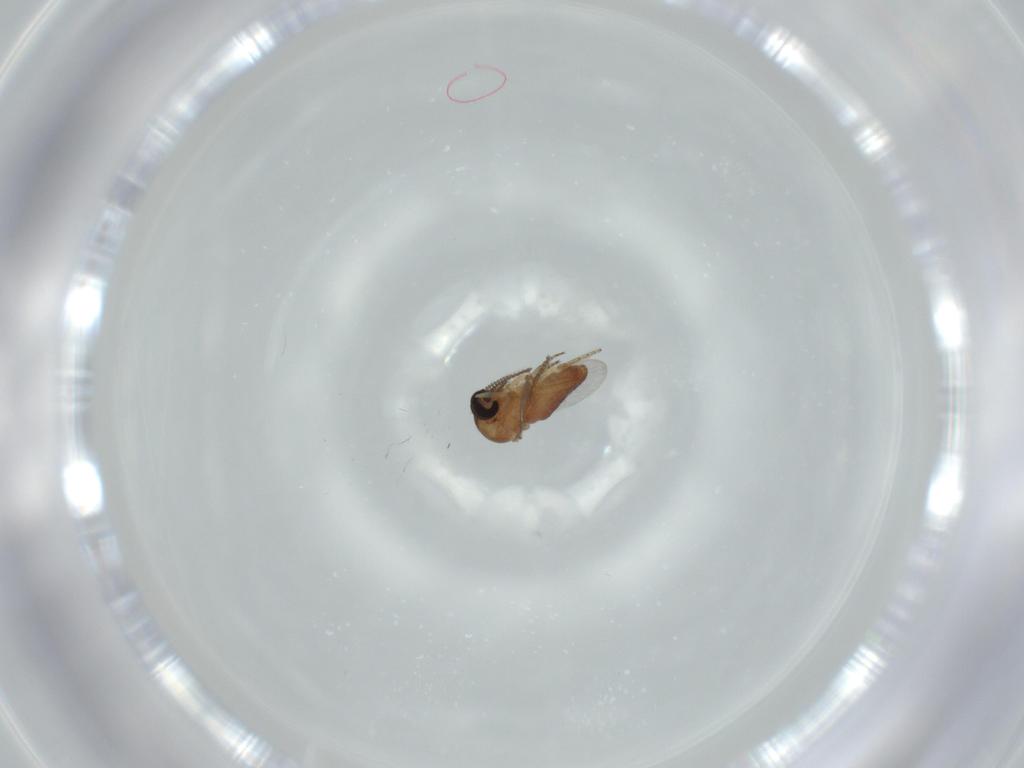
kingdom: Animalia
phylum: Arthropoda
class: Insecta
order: Diptera
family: Ceratopogonidae
